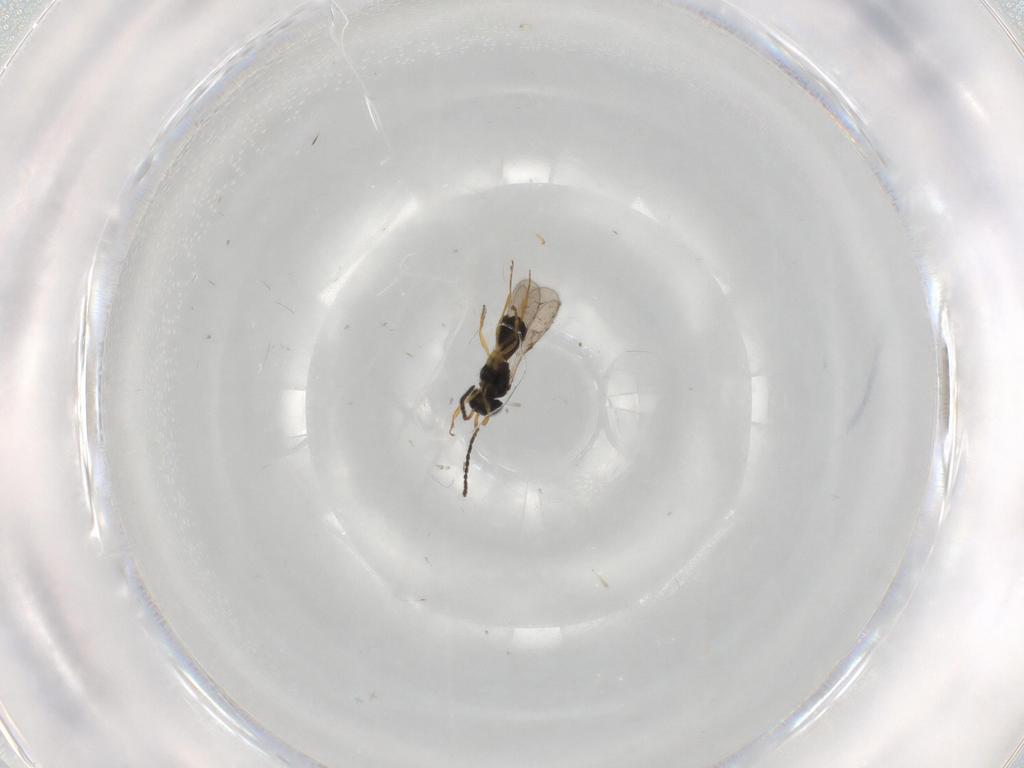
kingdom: Animalia
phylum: Arthropoda
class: Insecta
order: Hymenoptera
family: Scelionidae
